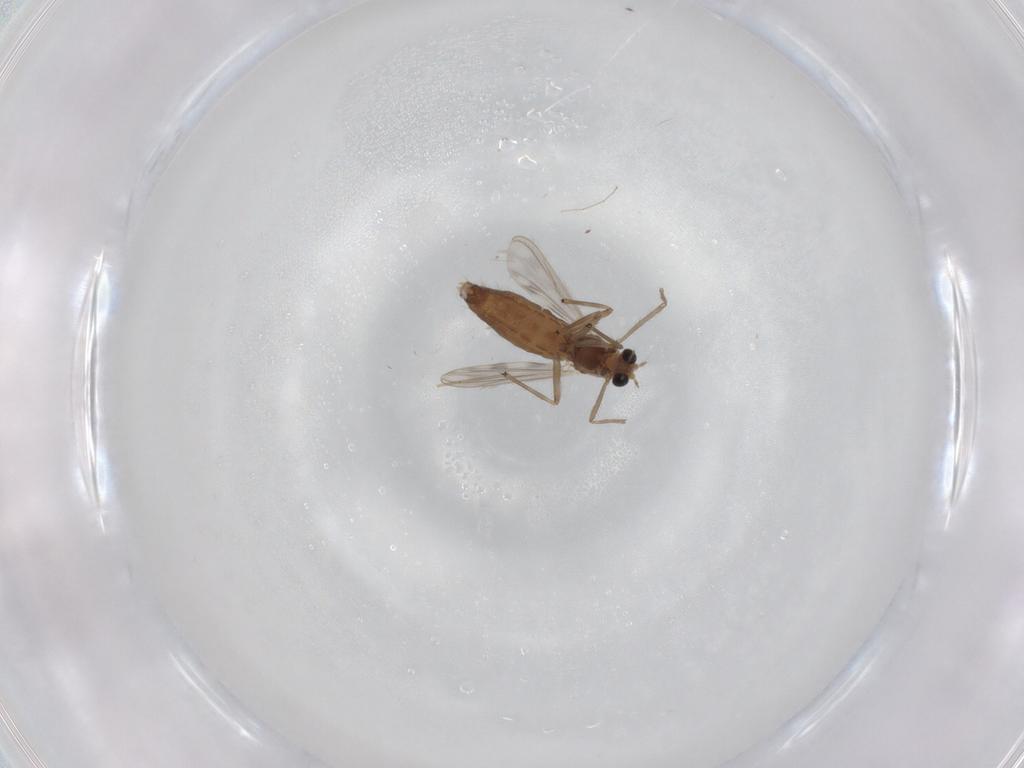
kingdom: Animalia
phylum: Arthropoda
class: Insecta
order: Diptera
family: Chironomidae
